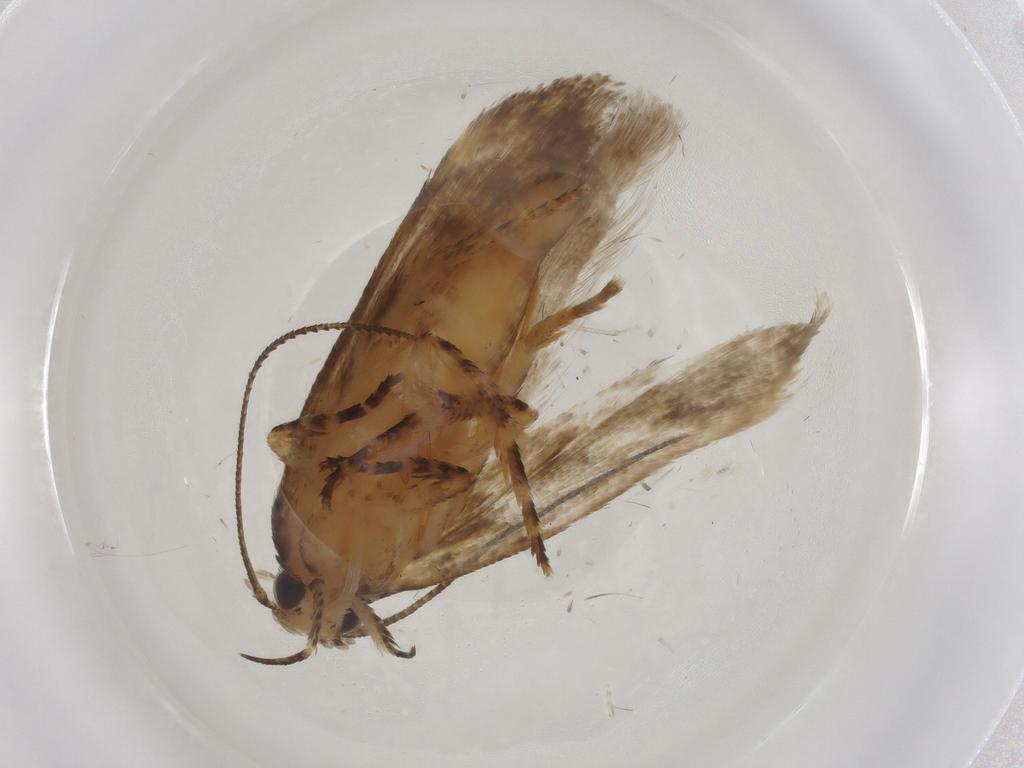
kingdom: Animalia
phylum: Arthropoda
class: Insecta
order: Lepidoptera
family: Gelechiidae
